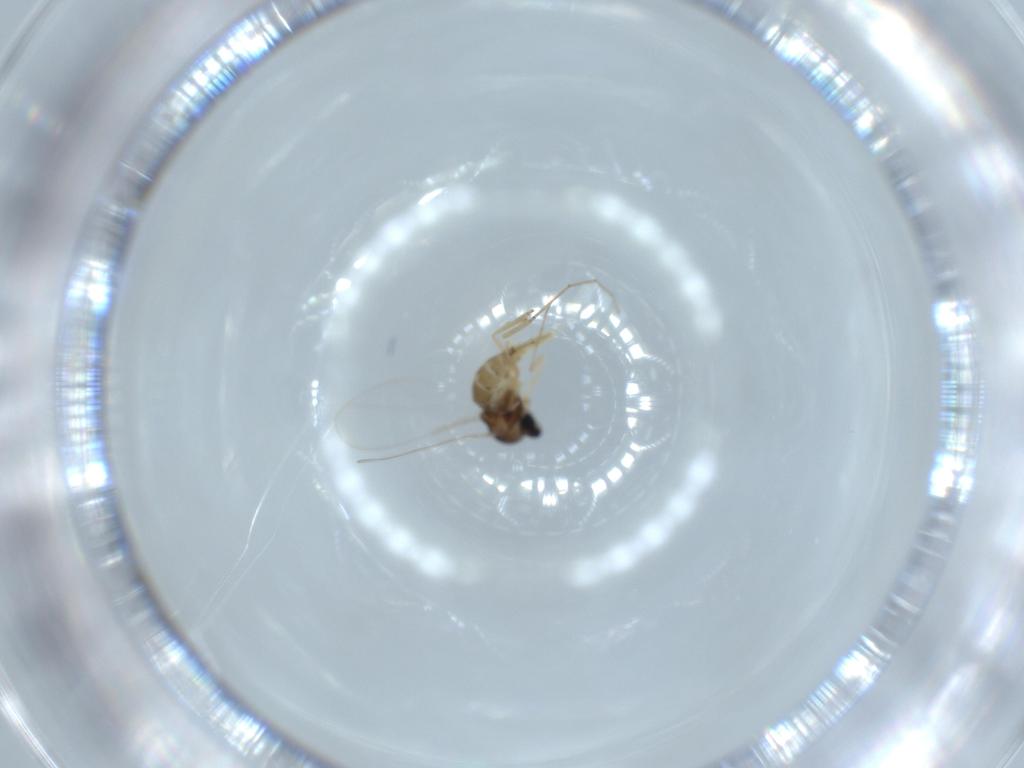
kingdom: Animalia
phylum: Arthropoda
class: Insecta
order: Diptera
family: Cecidomyiidae
